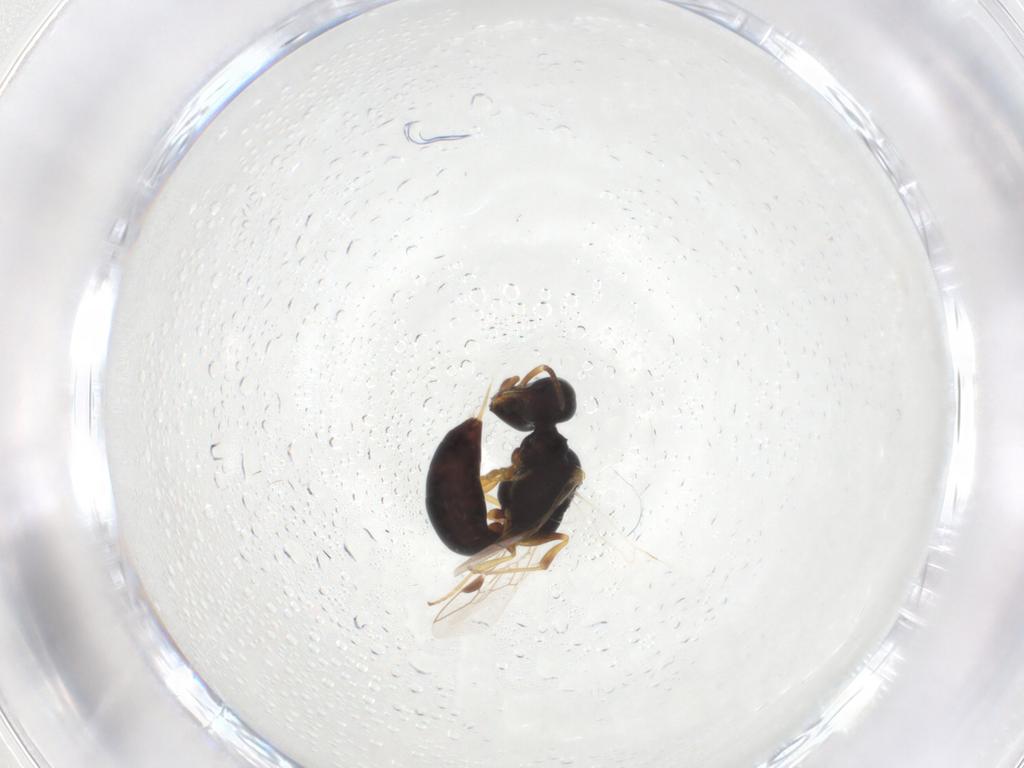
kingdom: Animalia
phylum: Arthropoda
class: Insecta
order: Hymenoptera
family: Pemphredonidae
